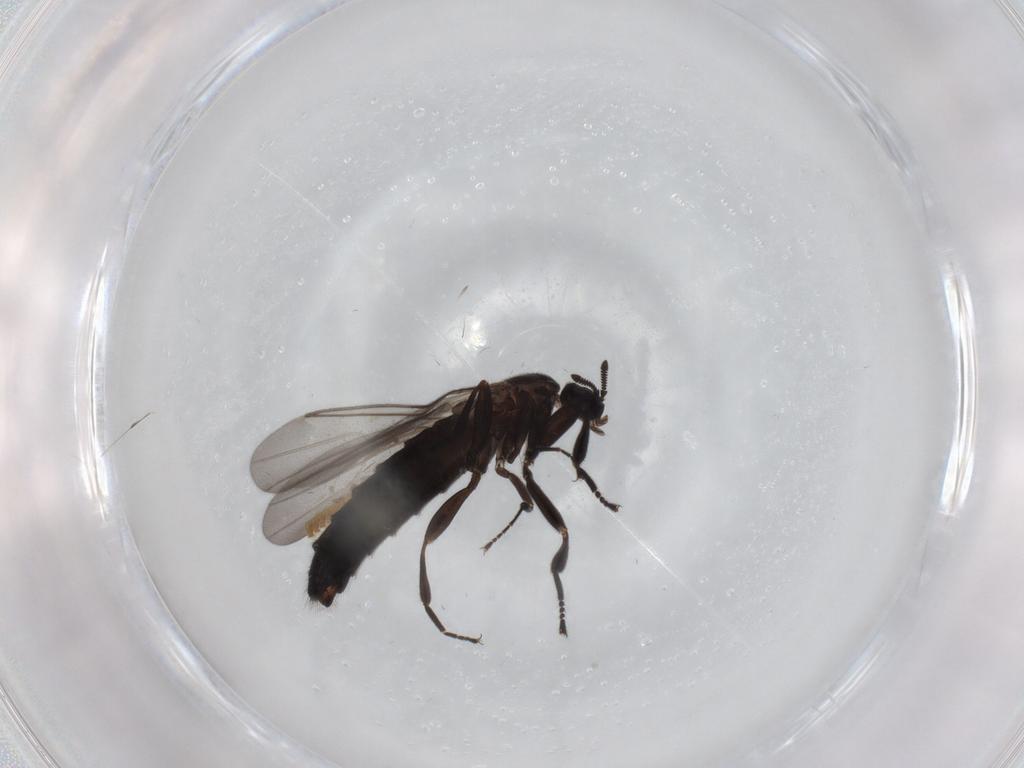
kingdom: Animalia
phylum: Arthropoda
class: Insecta
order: Diptera
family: Scatopsidae
